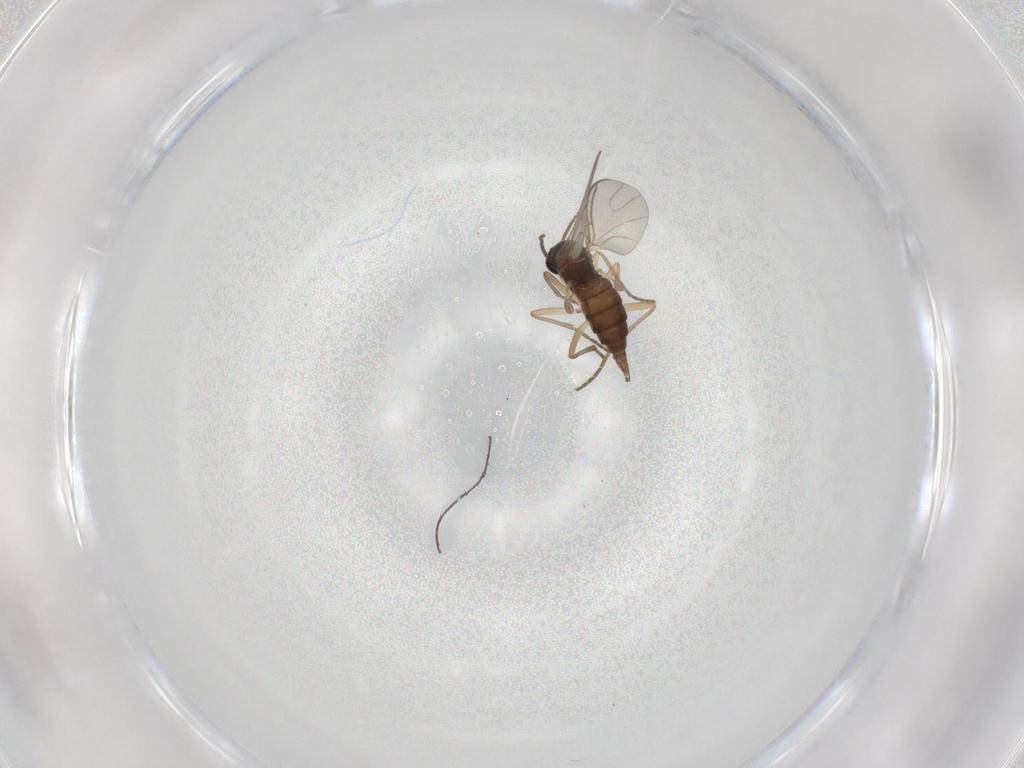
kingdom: Animalia
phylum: Arthropoda
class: Insecta
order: Diptera
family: Sciaridae
